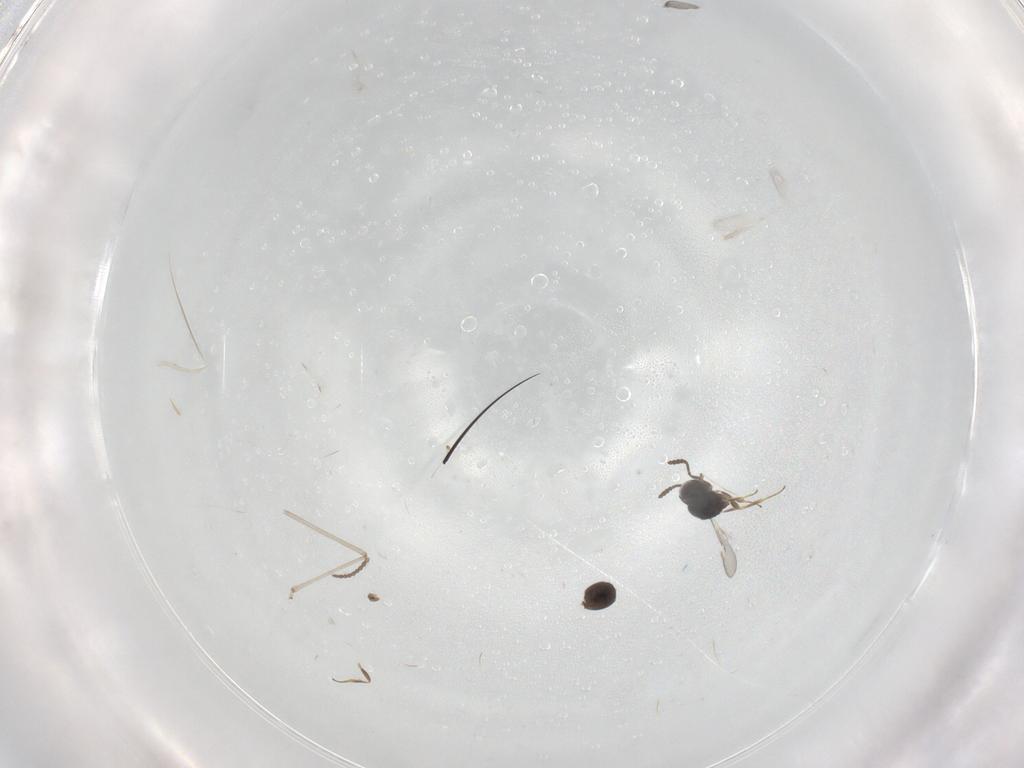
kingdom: Animalia
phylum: Arthropoda
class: Insecta
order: Hymenoptera
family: Scelionidae
